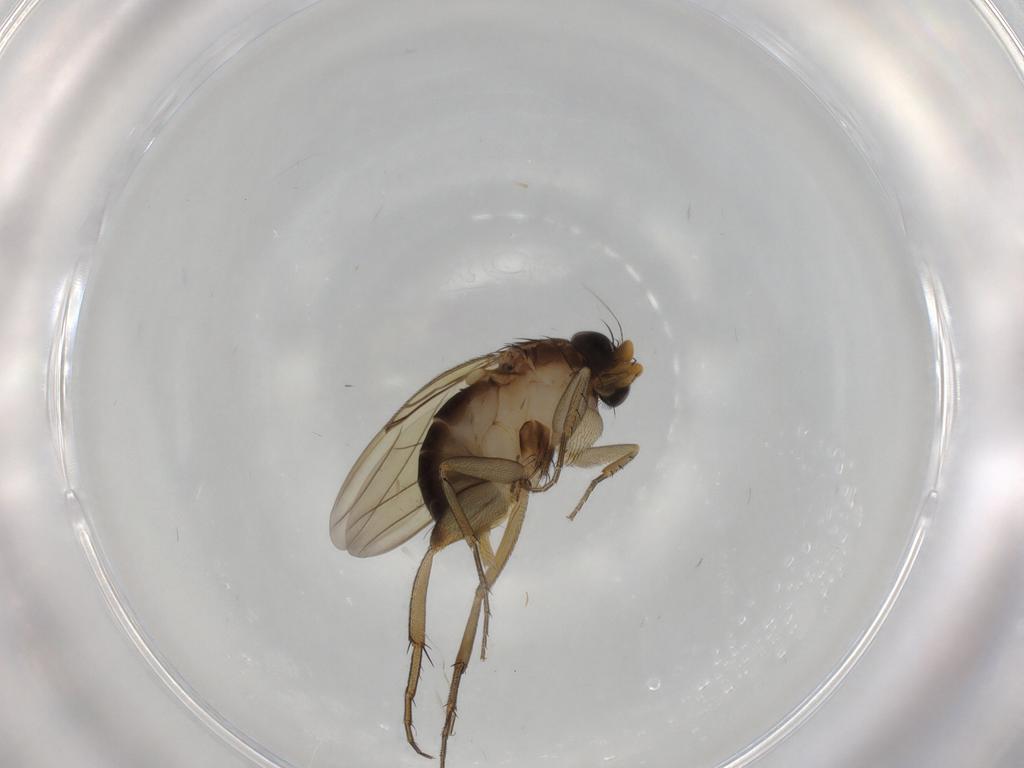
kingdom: Animalia
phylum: Arthropoda
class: Insecta
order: Diptera
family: Phoridae
